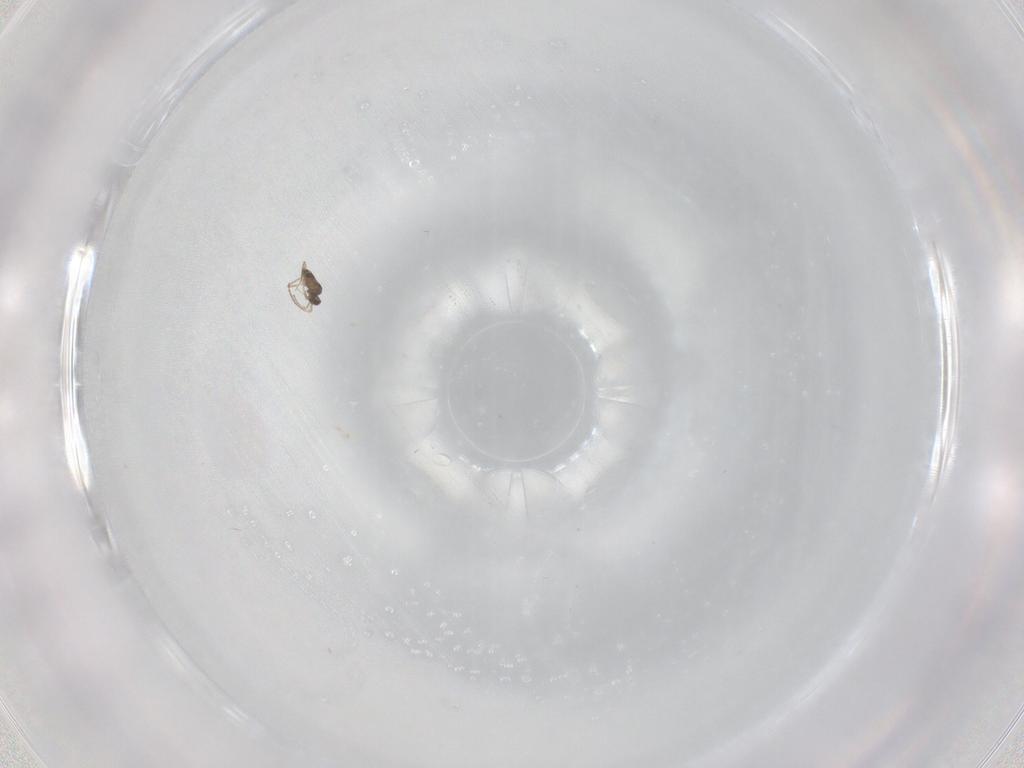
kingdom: Animalia
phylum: Arthropoda
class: Insecta
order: Hymenoptera
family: Mymaridae
